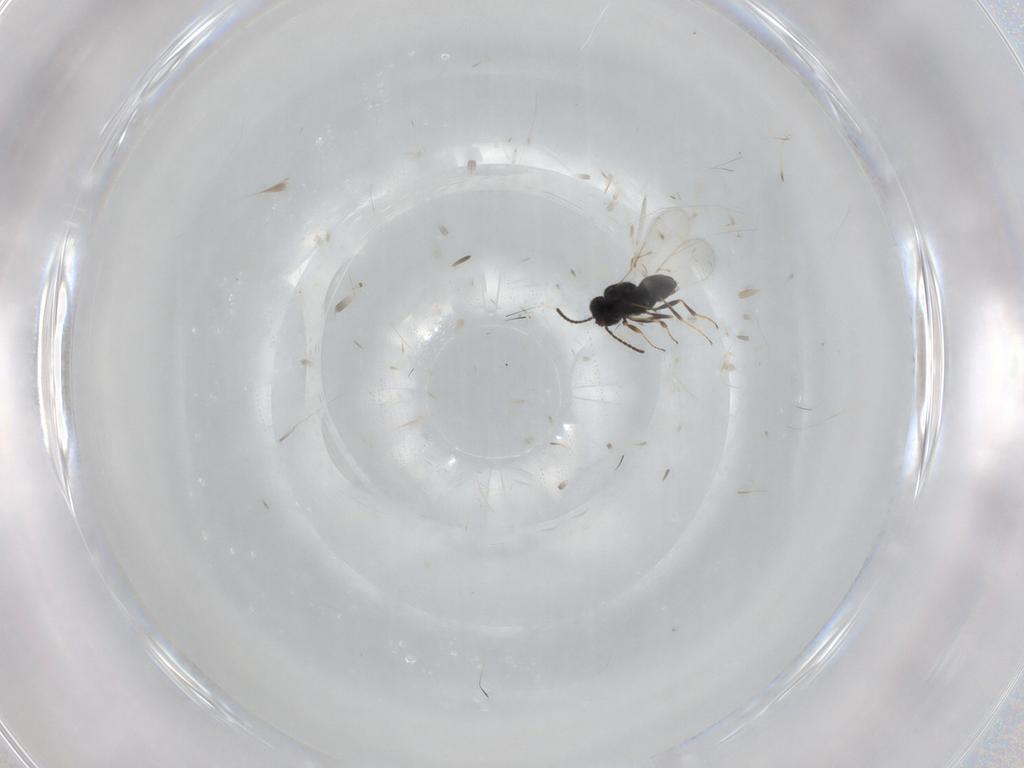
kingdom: Animalia
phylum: Arthropoda
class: Insecta
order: Hymenoptera
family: Scelionidae
